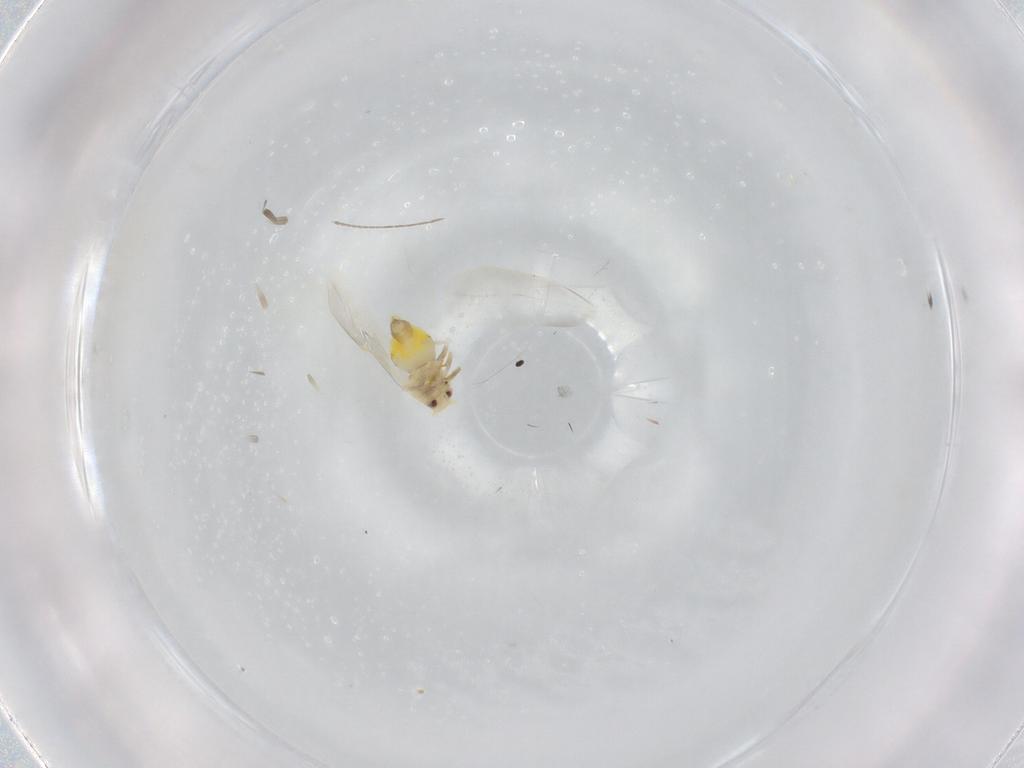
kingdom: Animalia
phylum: Arthropoda
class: Insecta
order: Hemiptera
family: Aleyrodidae
